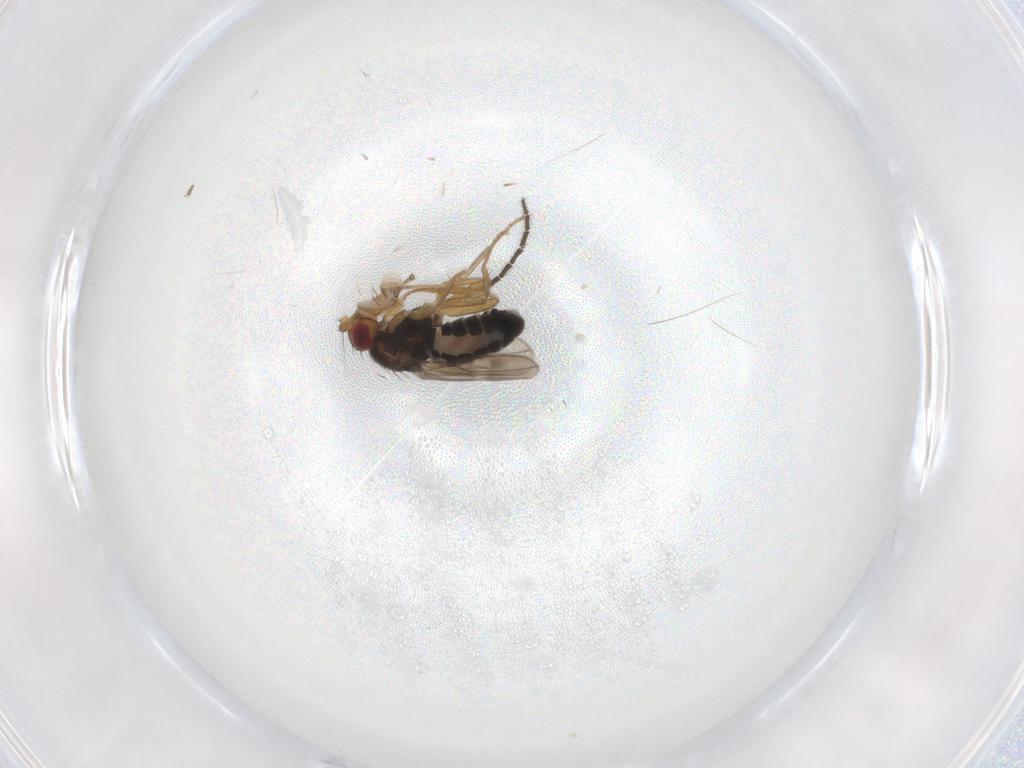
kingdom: Animalia
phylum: Arthropoda
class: Insecta
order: Diptera
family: Sphaeroceridae
